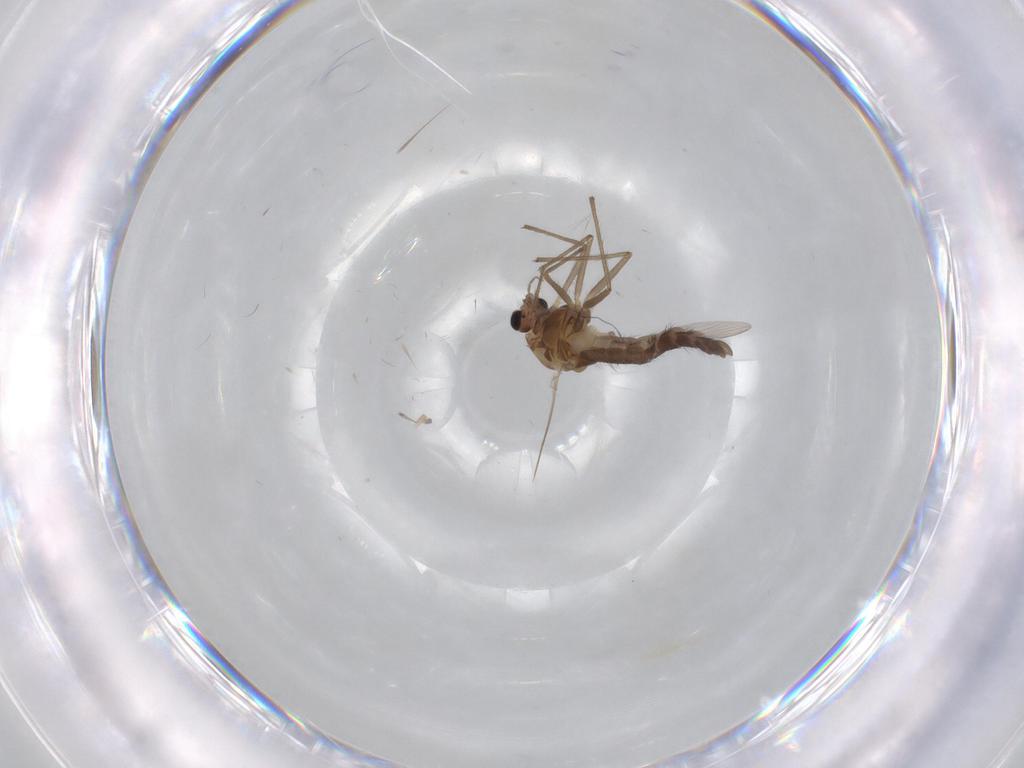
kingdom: Animalia
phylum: Arthropoda
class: Insecta
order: Diptera
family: Chironomidae
